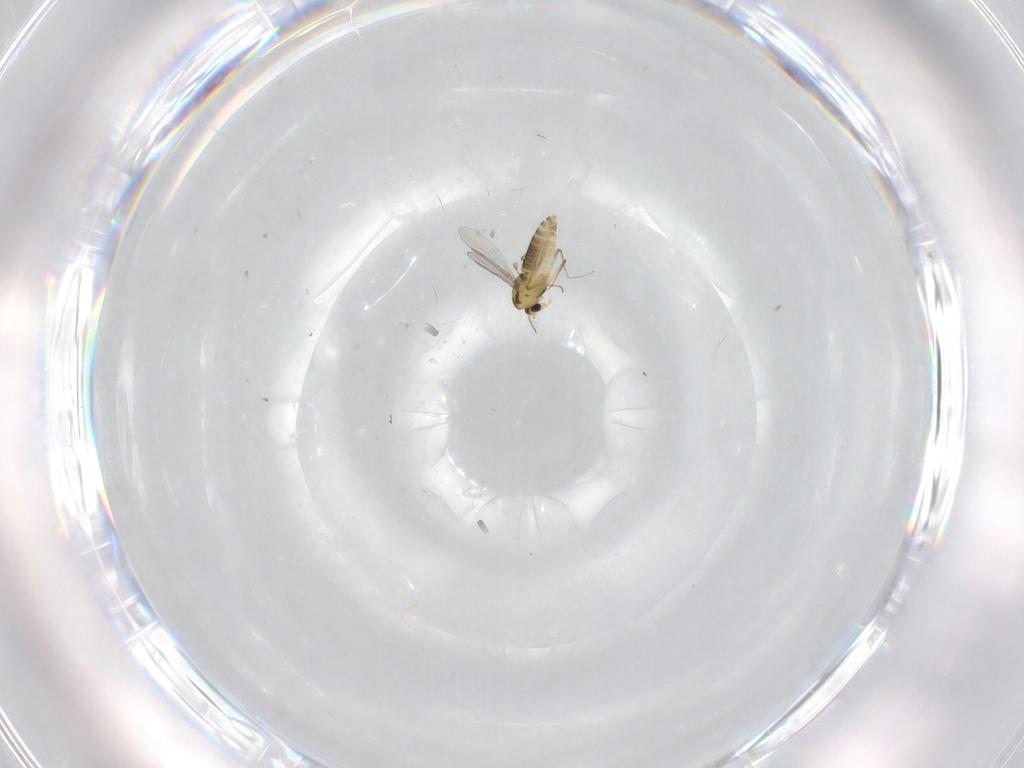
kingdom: Animalia
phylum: Arthropoda
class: Insecta
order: Diptera
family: Chironomidae
